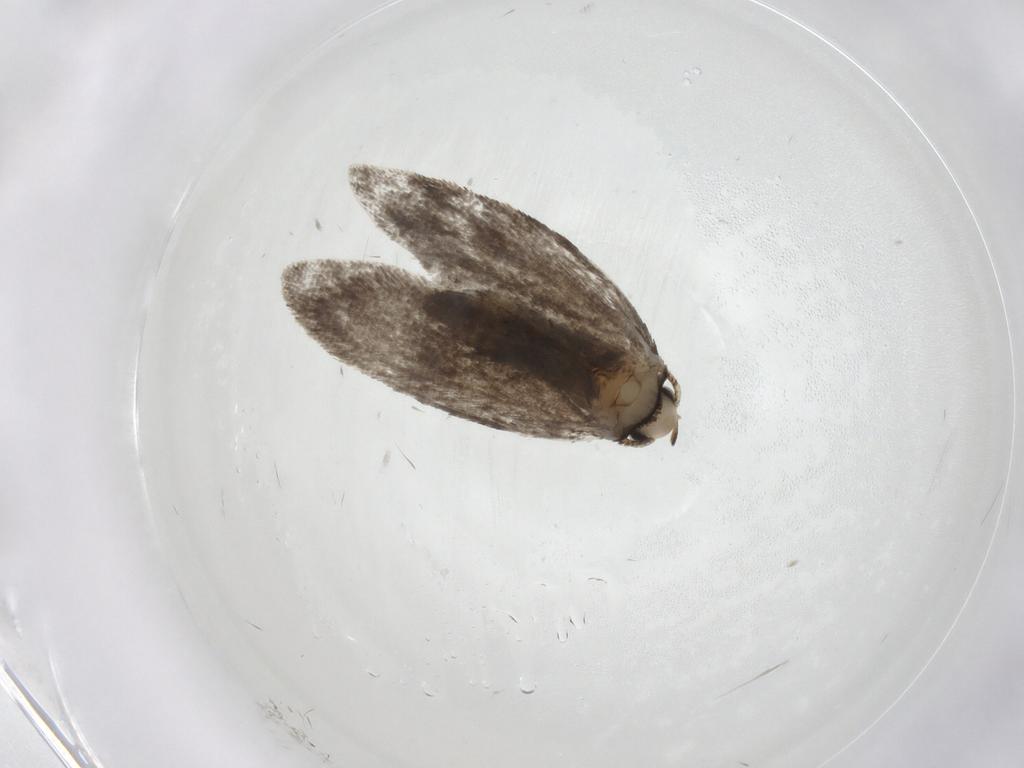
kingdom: Animalia
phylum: Arthropoda
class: Insecta
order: Lepidoptera
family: Psychidae
